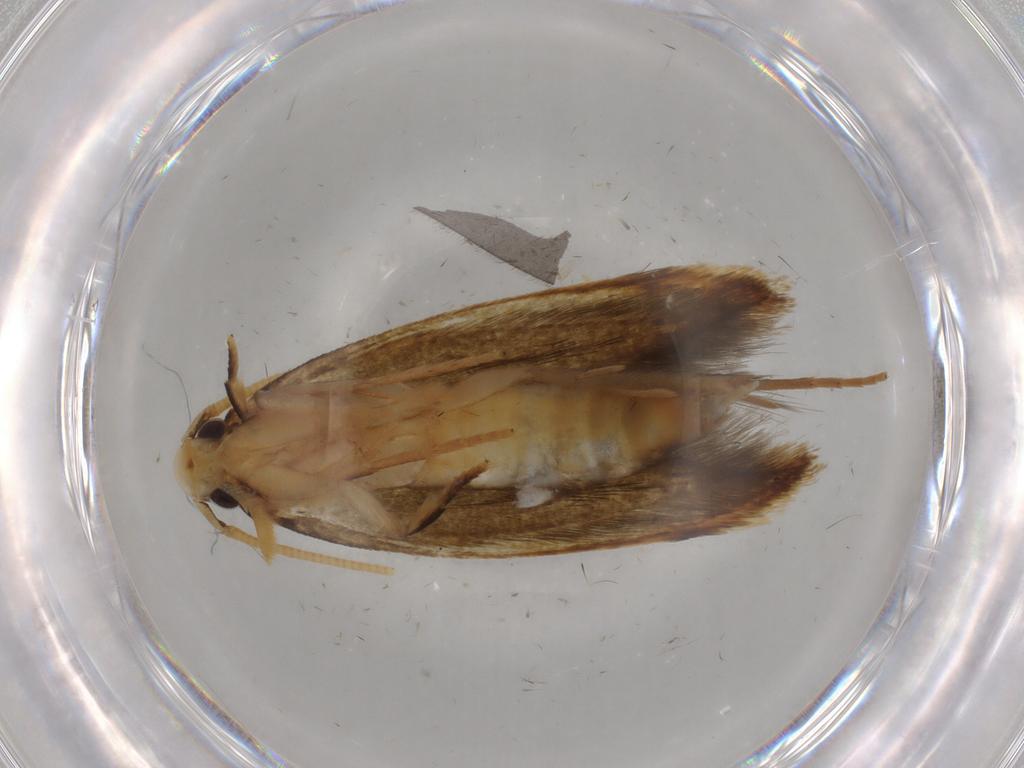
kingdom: Animalia
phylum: Arthropoda
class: Insecta
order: Lepidoptera
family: Tineidae
